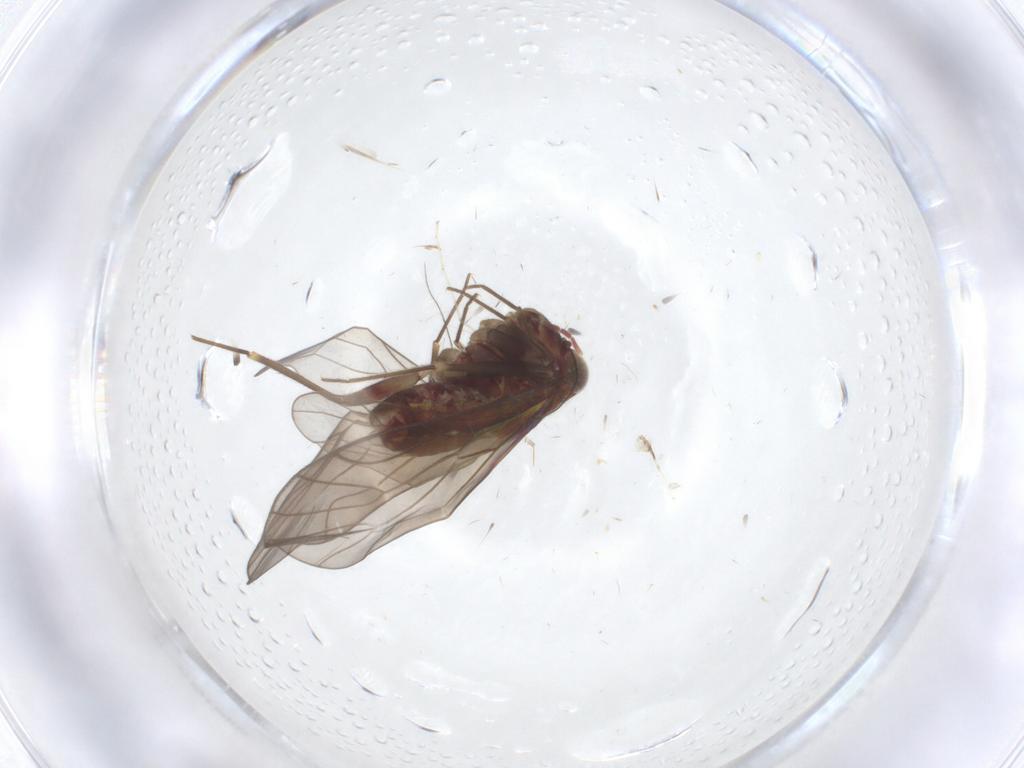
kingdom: Animalia
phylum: Arthropoda
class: Insecta
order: Psocodea
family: Philotarsidae
